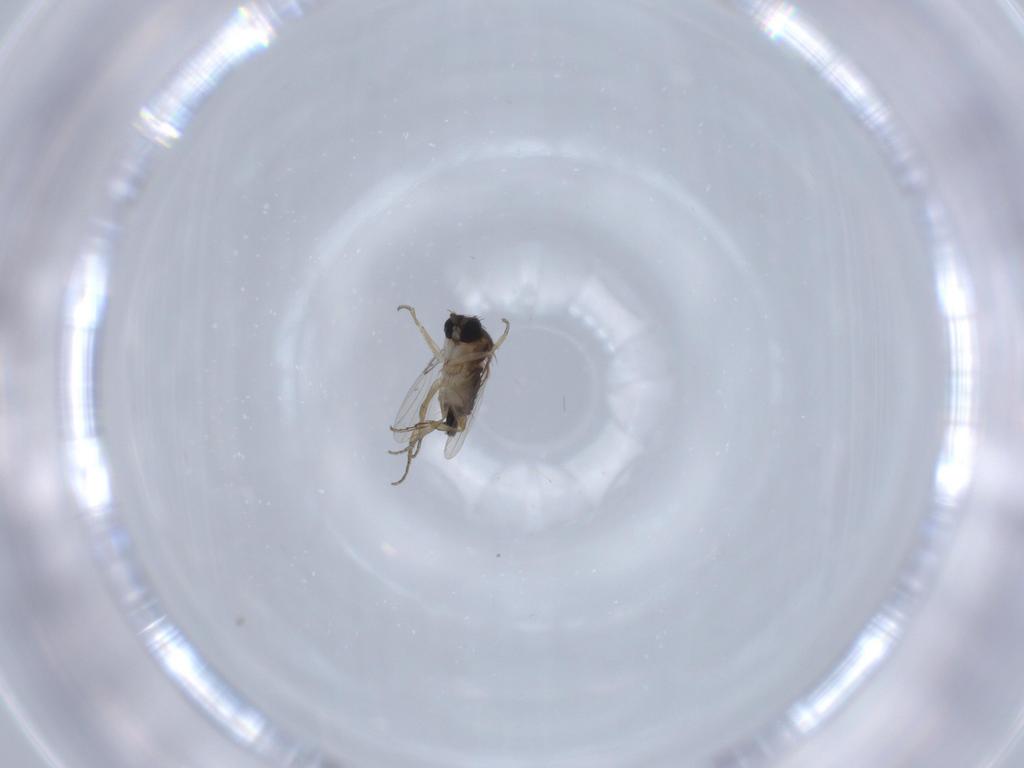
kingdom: Animalia
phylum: Arthropoda
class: Insecta
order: Diptera
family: Phoridae
